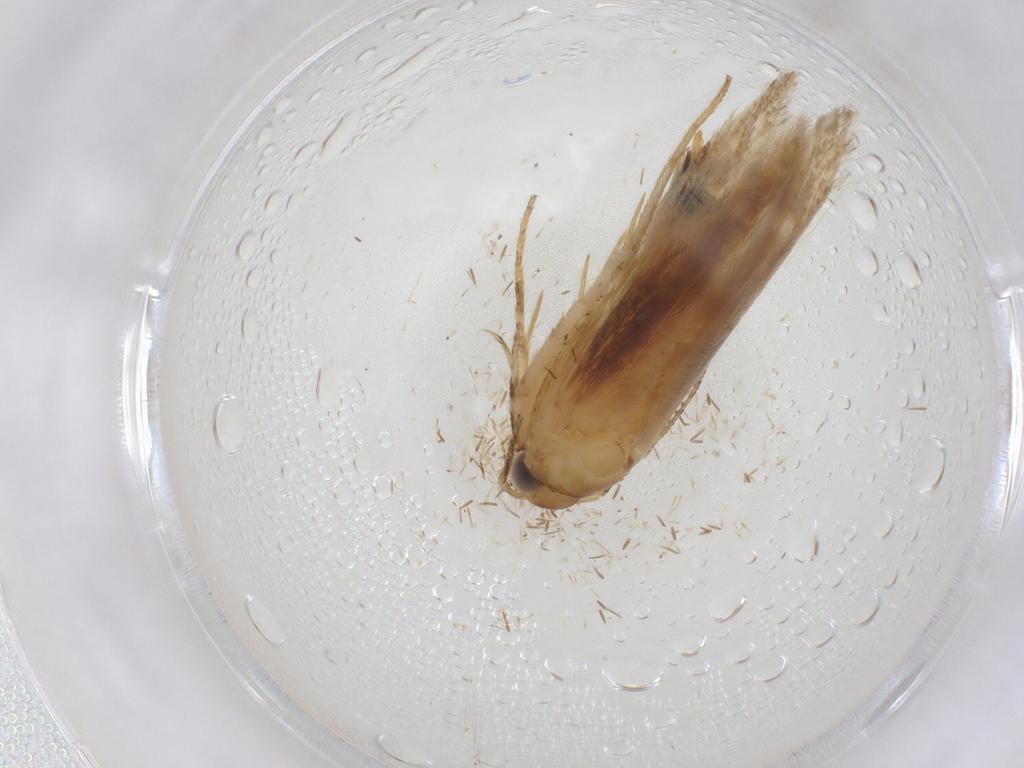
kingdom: Animalia
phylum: Arthropoda
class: Insecta
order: Lepidoptera
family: Gelechiidae
